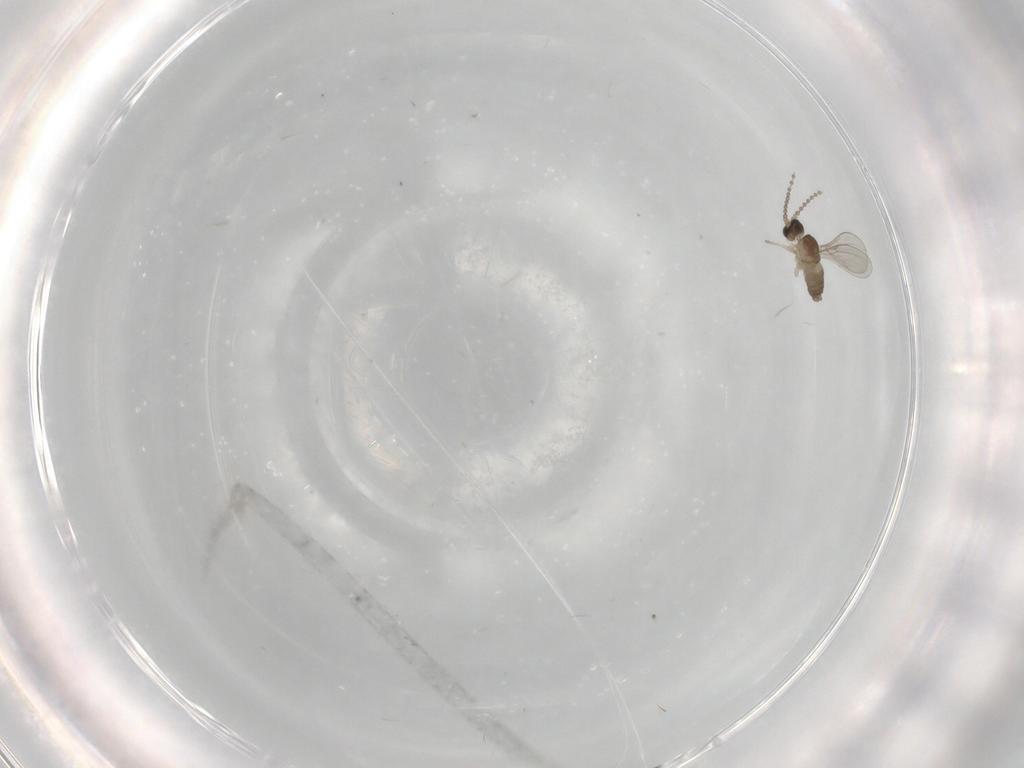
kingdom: Animalia
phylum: Arthropoda
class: Insecta
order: Diptera
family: Cecidomyiidae
